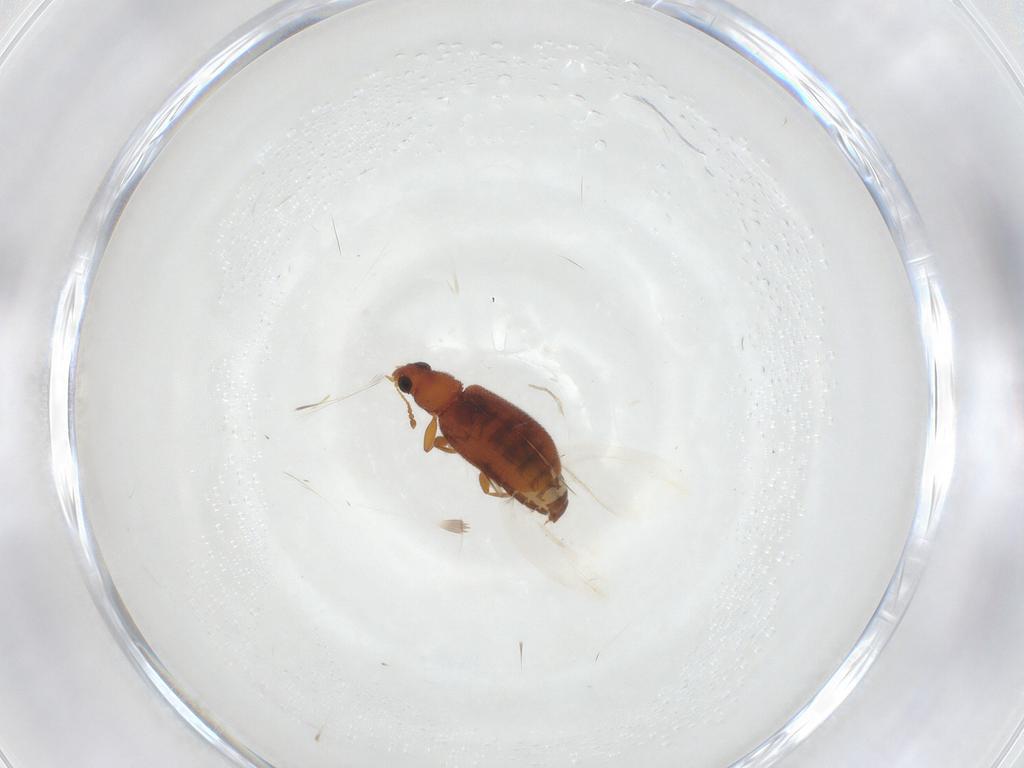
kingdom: Animalia
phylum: Arthropoda
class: Insecta
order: Coleoptera
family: Latridiidae
